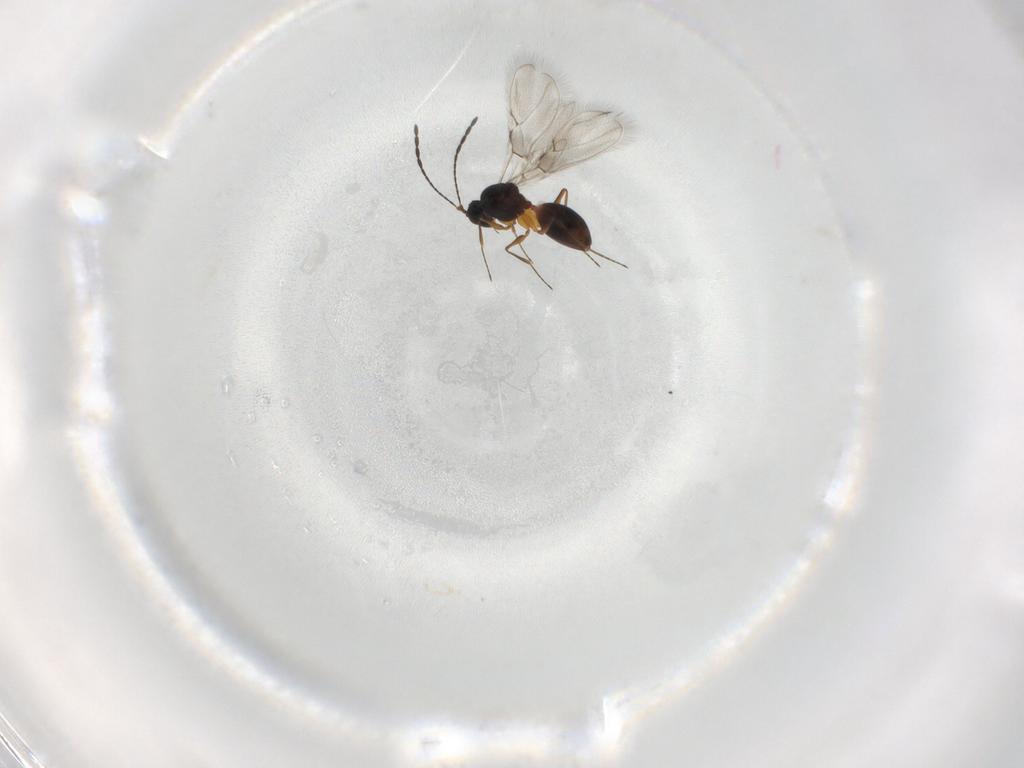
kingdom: Animalia
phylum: Arthropoda
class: Insecta
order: Hymenoptera
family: Figitidae
